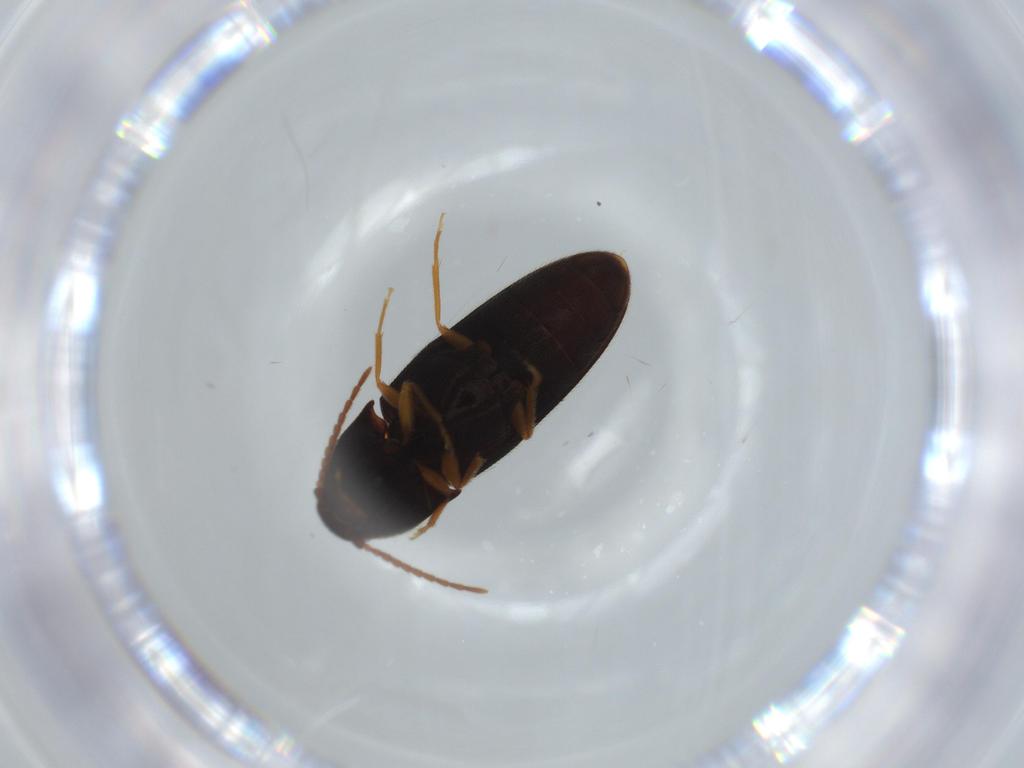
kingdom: Animalia
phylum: Arthropoda
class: Insecta
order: Coleoptera
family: Elateridae
